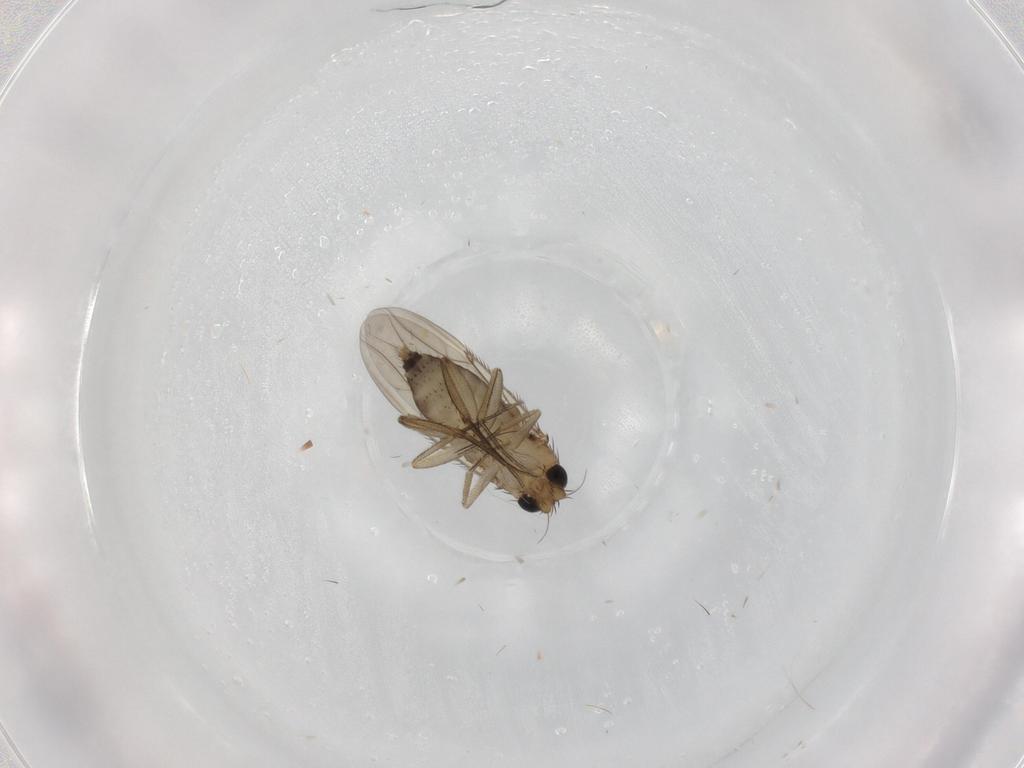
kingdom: Animalia
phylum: Arthropoda
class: Insecta
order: Diptera
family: Phoridae
